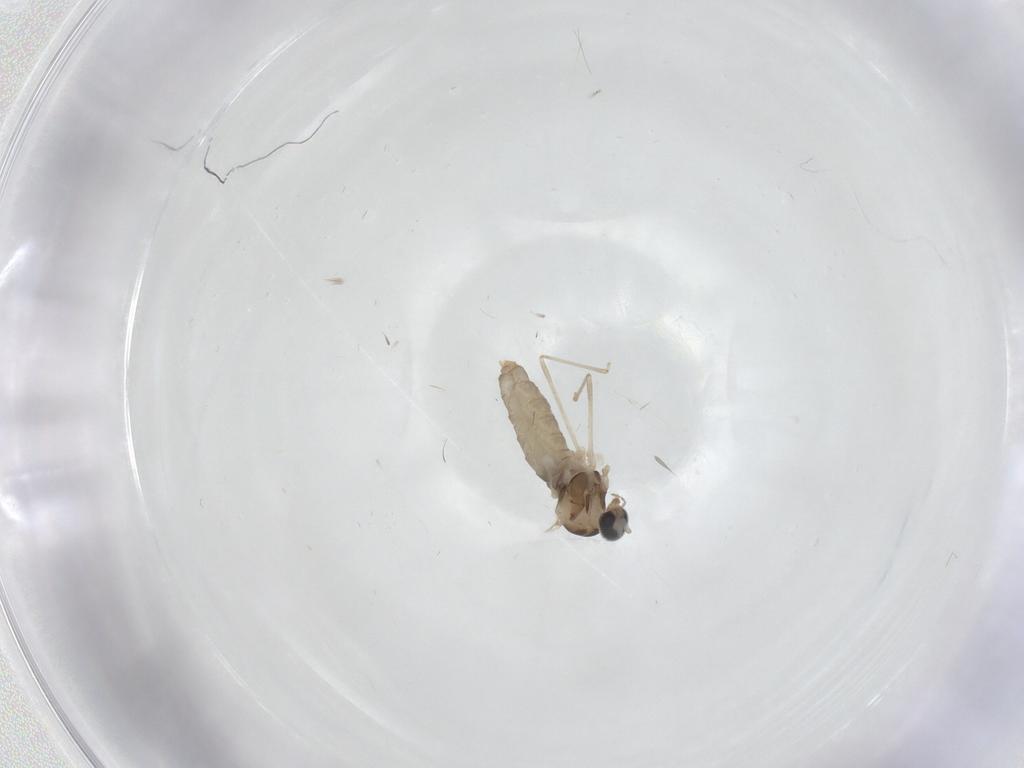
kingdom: Animalia
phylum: Arthropoda
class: Insecta
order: Diptera
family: Cecidomyiidae
